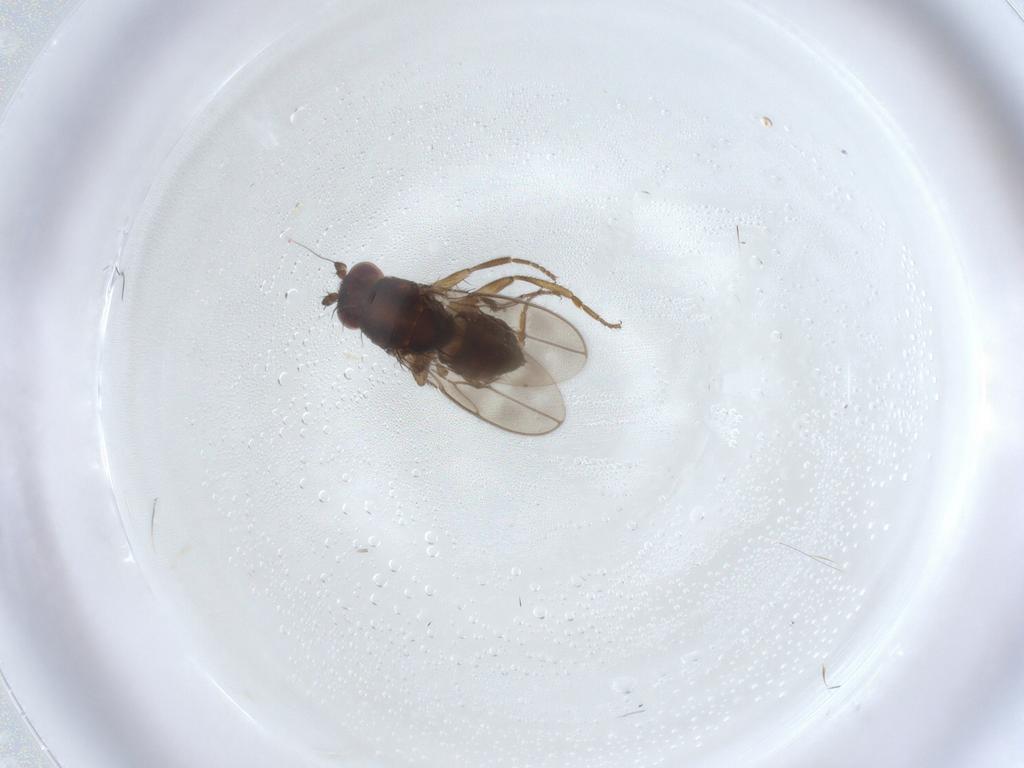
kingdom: Animalia
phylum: Arthropoda
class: Insecta
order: Diptera
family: Sphaeroceridae
